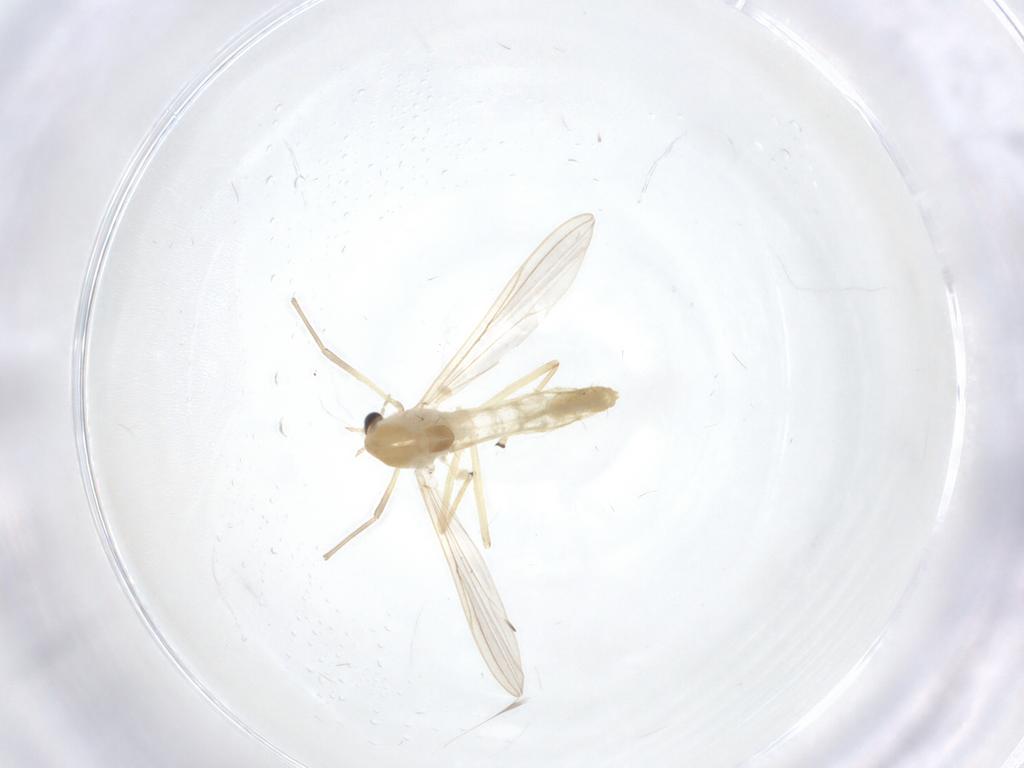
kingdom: Animalia
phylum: Arthropoda
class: Insecta
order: Diptera
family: Chironomidae
